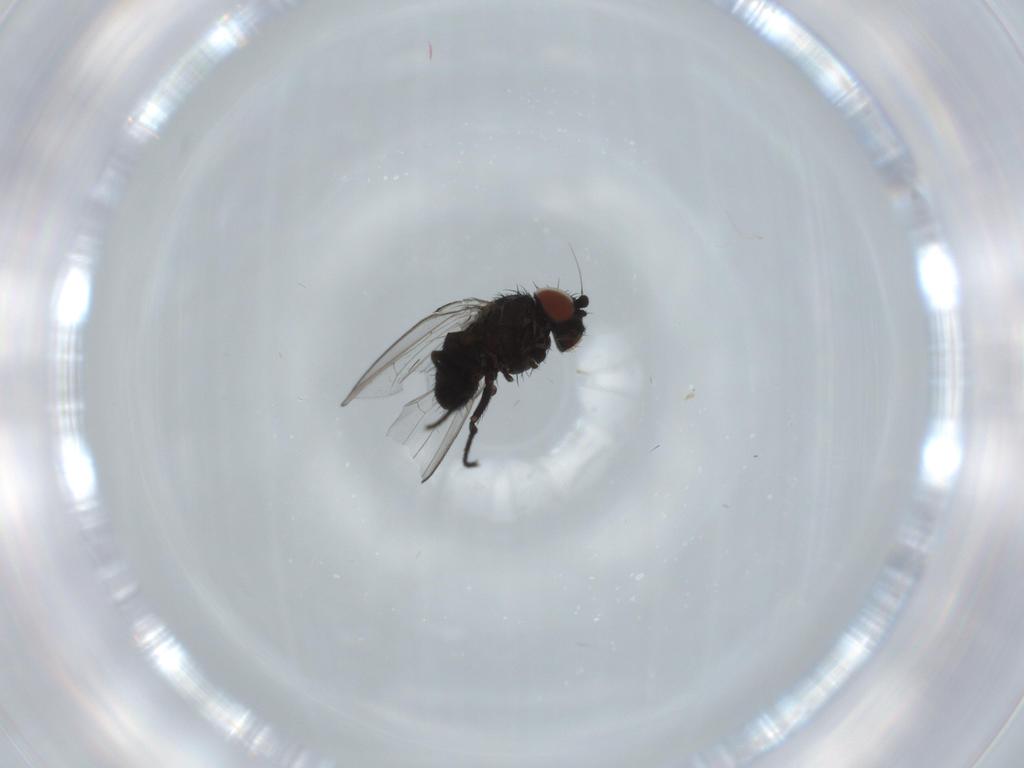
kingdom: Animalia
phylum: Arthropoda
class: Insecta
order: Diptera
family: Milichiidae
